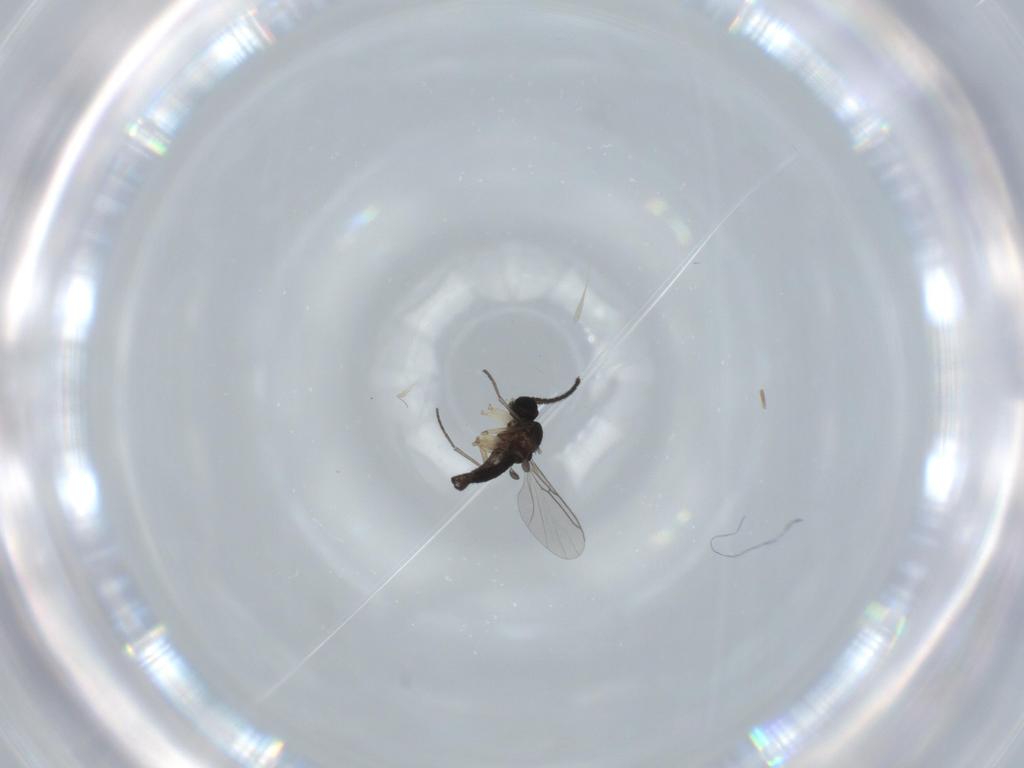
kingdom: Animalia
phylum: Arthropoda
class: Insecta
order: Diptera
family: Sciaridae
